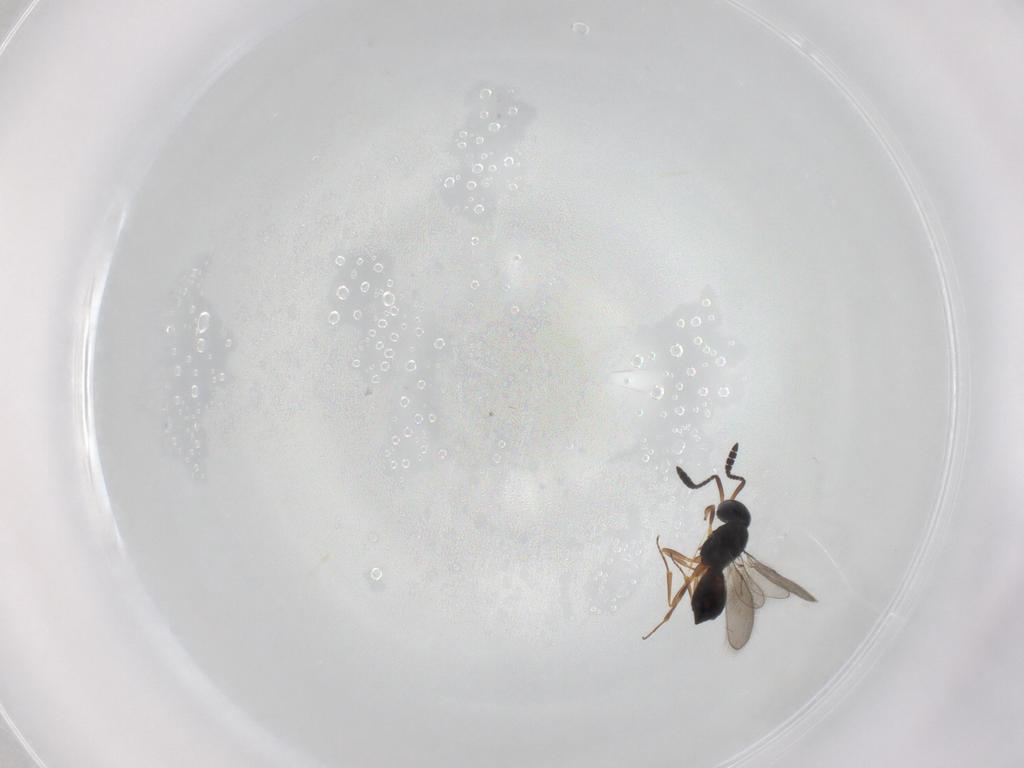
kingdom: Animalia
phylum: Arthropoda
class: Insecta
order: Hymenoptera
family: Scelionidae
